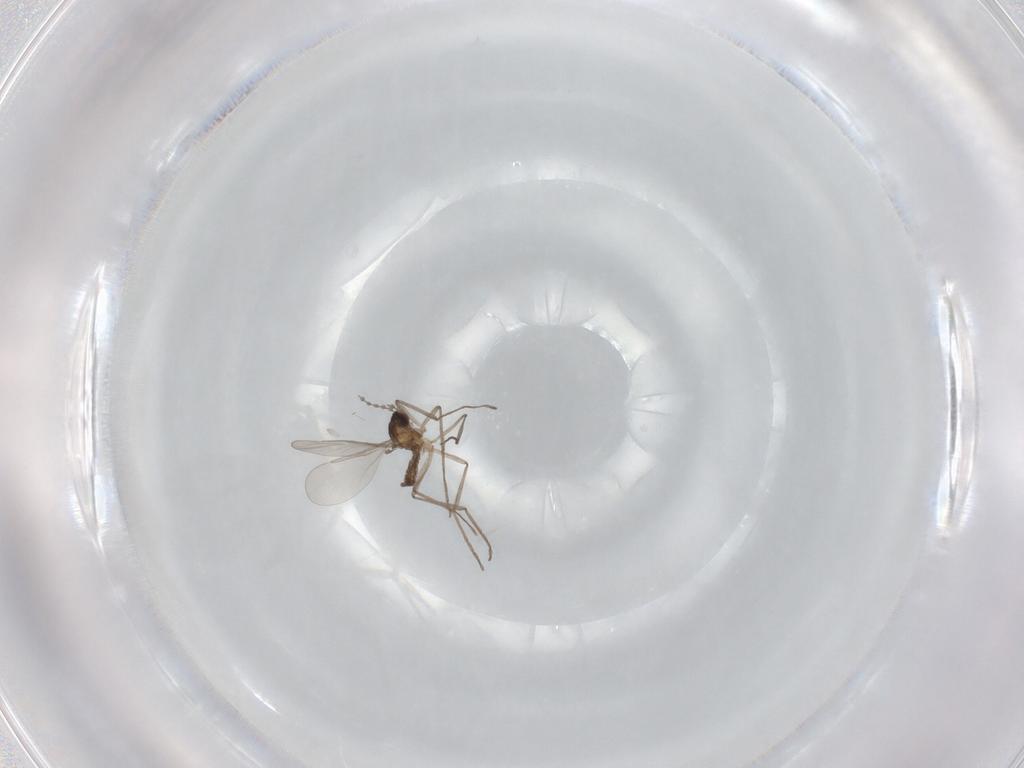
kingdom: Animalia
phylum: Arthropoda
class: Insecta
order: Diptera
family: Cecidomyiidae
